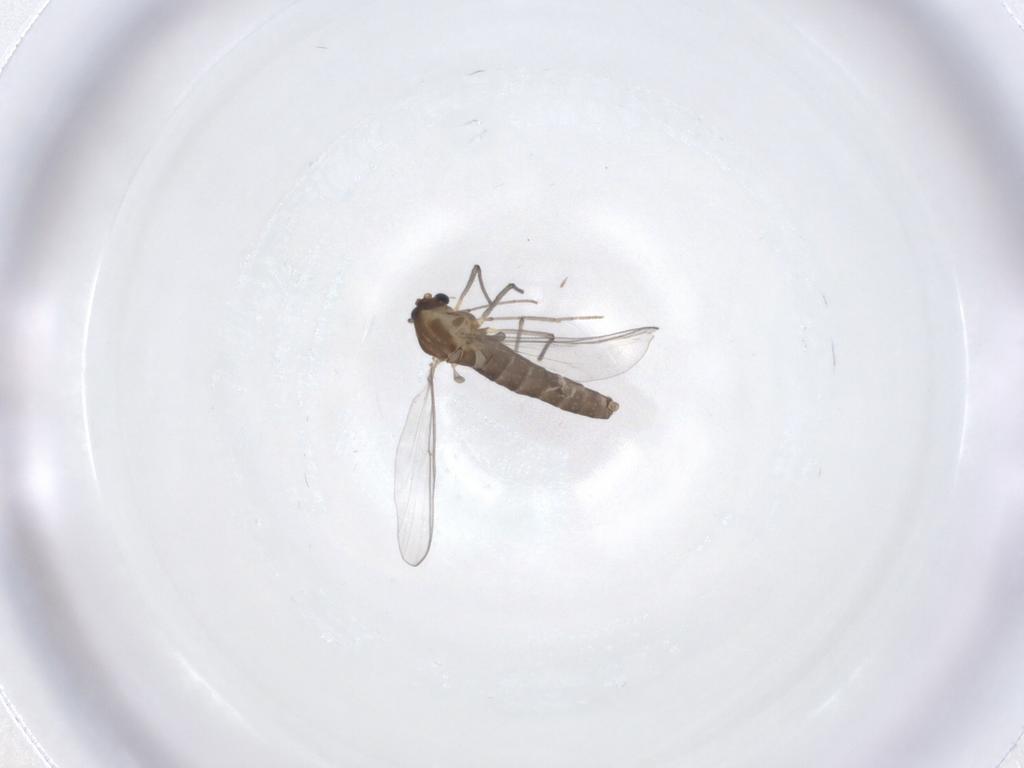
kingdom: Animalia
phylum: Arthropoda
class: Insecta
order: Diptera
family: Chironomidae
